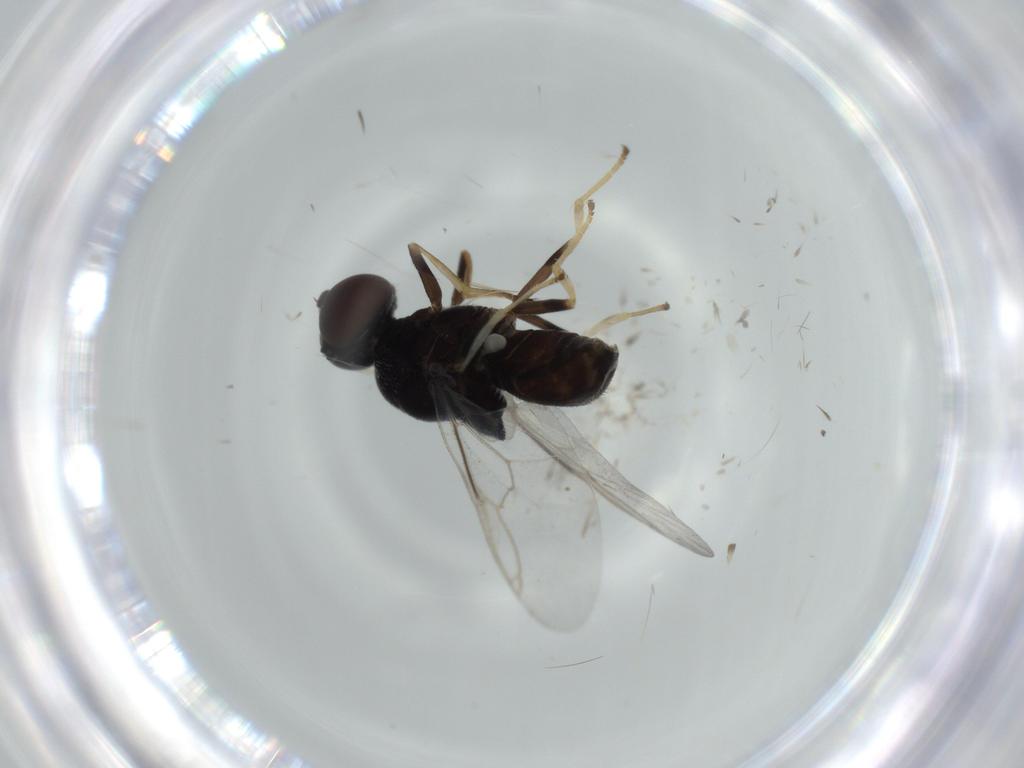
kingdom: Animalia
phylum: Arthropoda
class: Insecta
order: Diptera
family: Stratiomyidae
